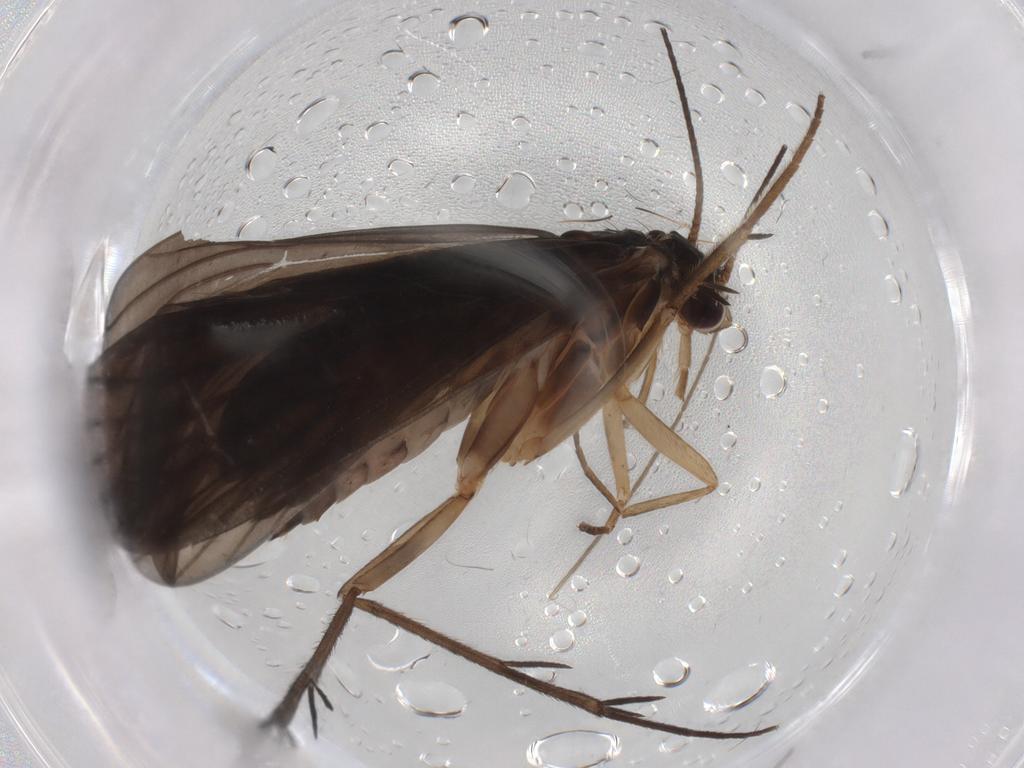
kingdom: Animalia
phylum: Arthropoda
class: Insecta
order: Trichoptera
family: Philopotamidae
